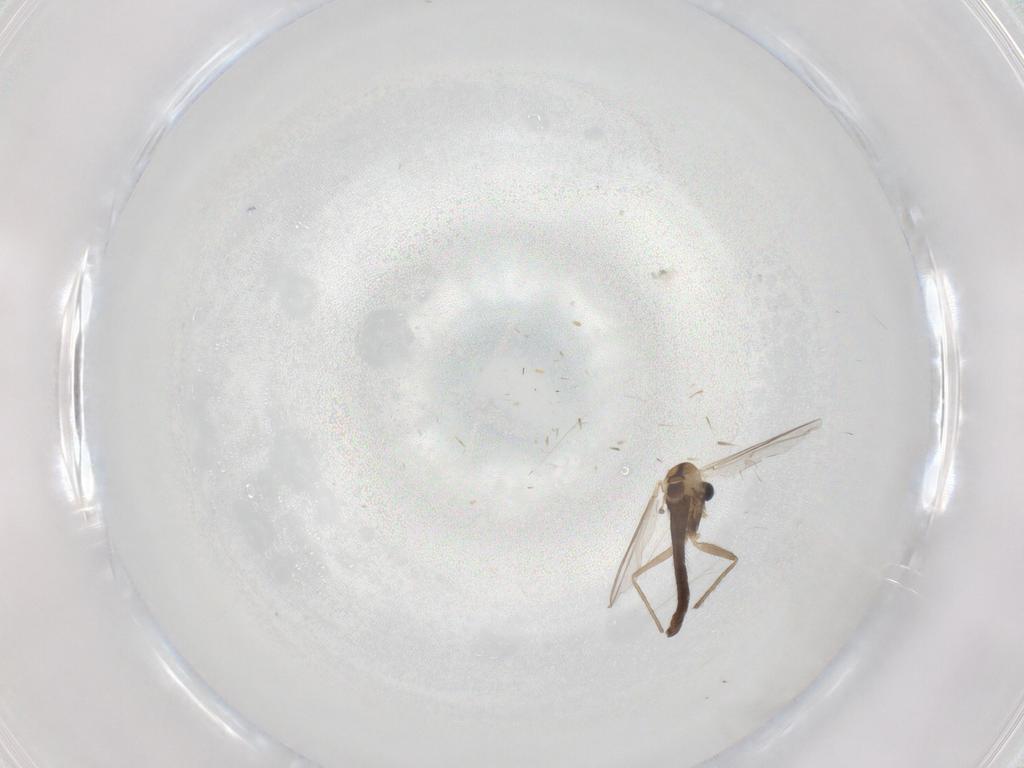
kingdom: Animalia
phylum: Arthropoda
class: Insecta
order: Diptera
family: Chironomidae
